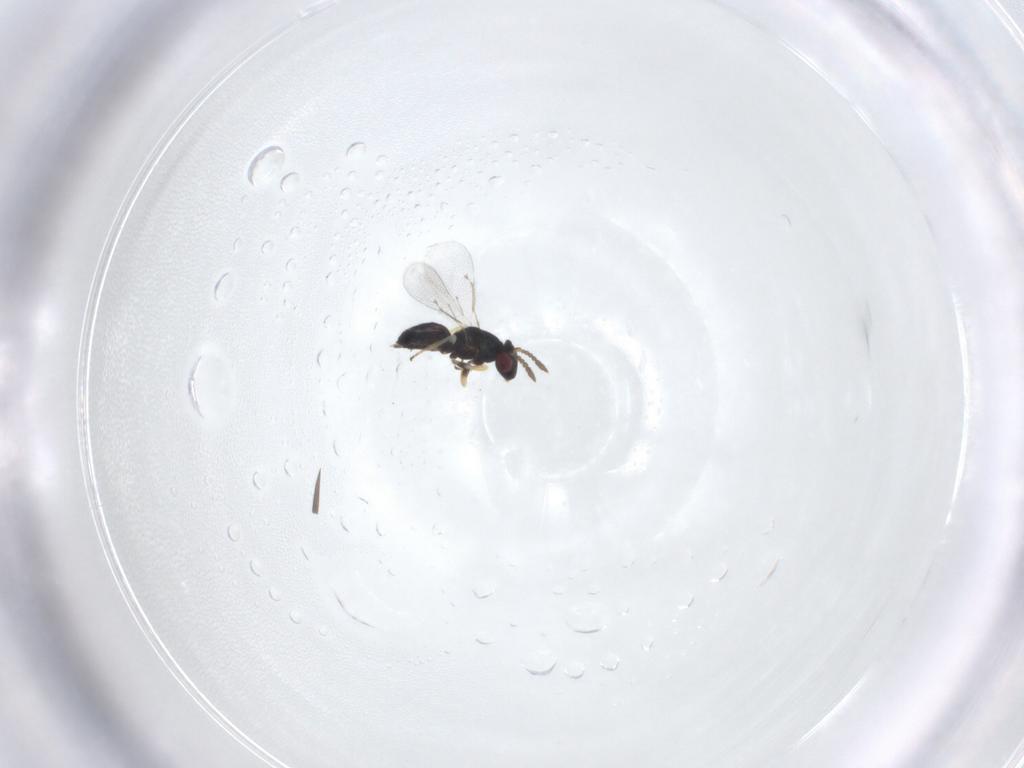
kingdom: Animalia
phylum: Arthropoda
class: Insecta
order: Hymenoptera
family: Eulophidae
